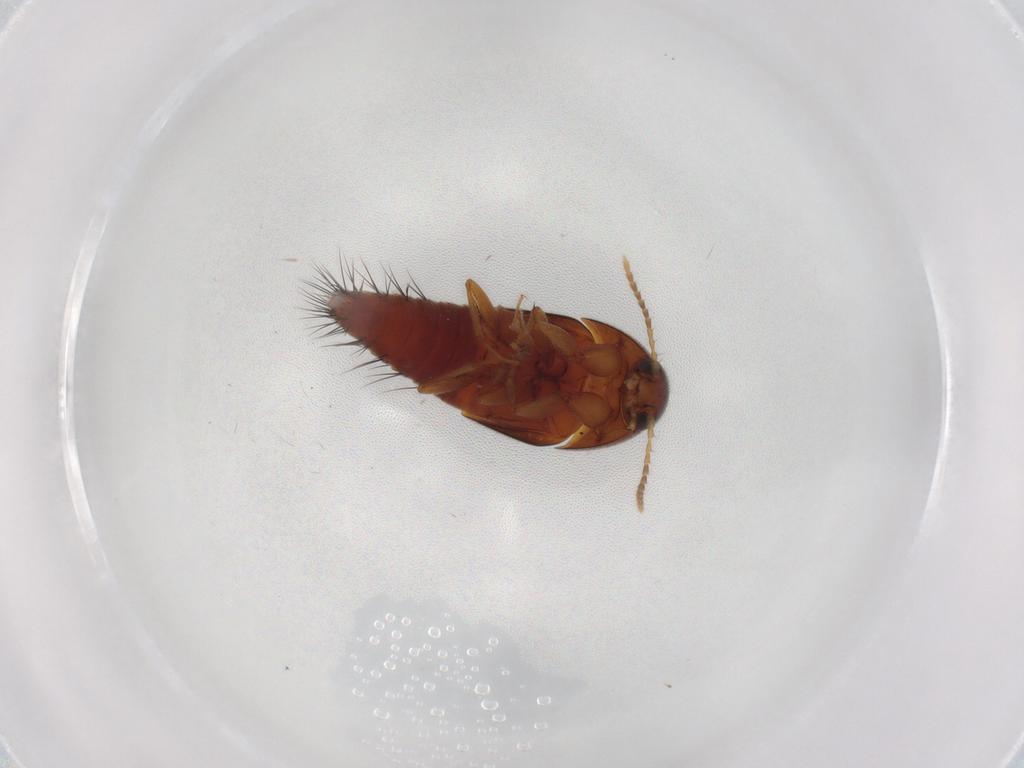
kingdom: Animalia
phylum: Arthropoda
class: Insecta
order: Coleoptera
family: Staphylinidae
